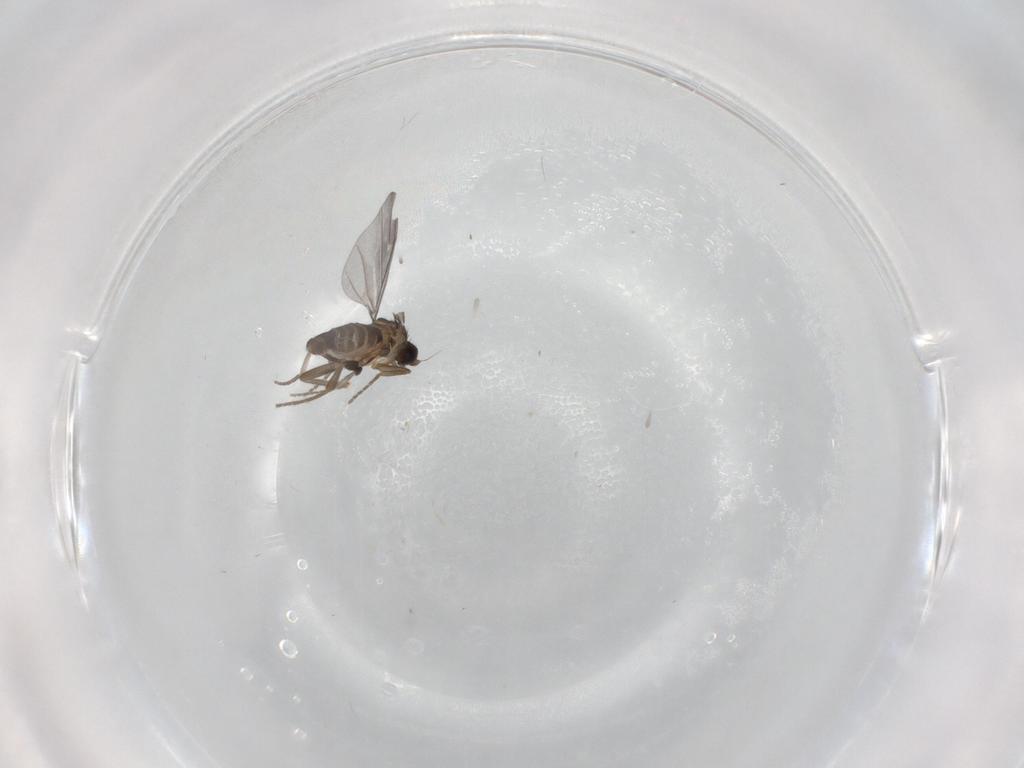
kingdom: Animalia
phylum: Arthropoda
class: Insecta
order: Diptera
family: Phoridae
